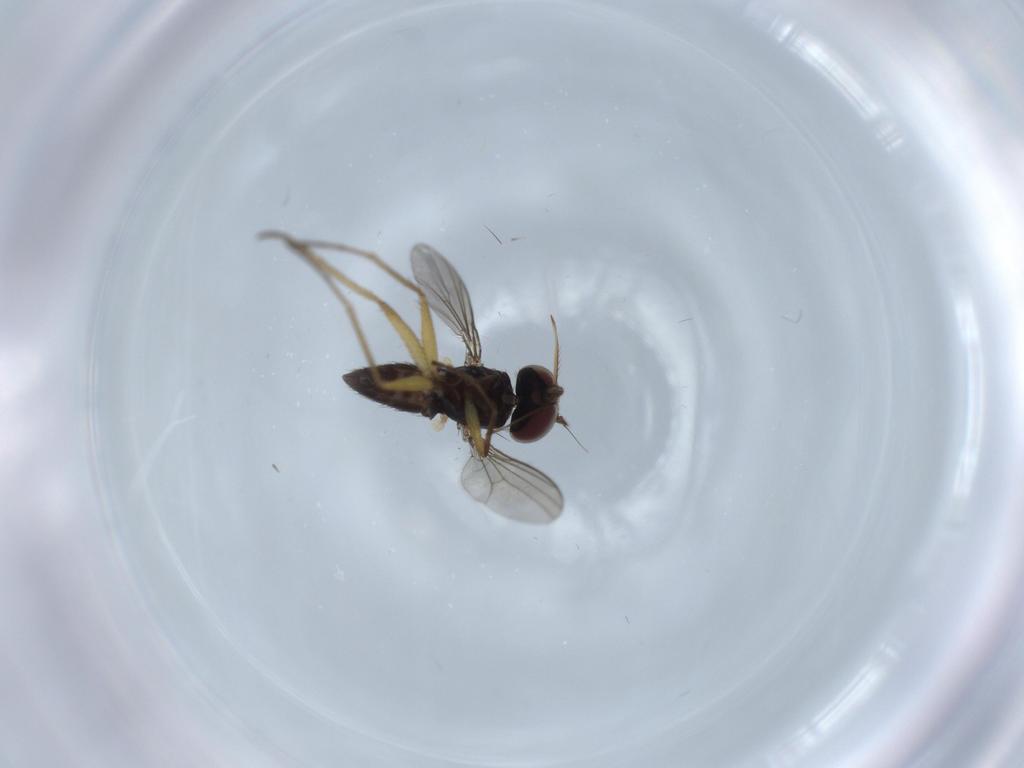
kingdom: Animalia
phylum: Arthropoda
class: Insecta
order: Diptera
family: Dolichopodidae
